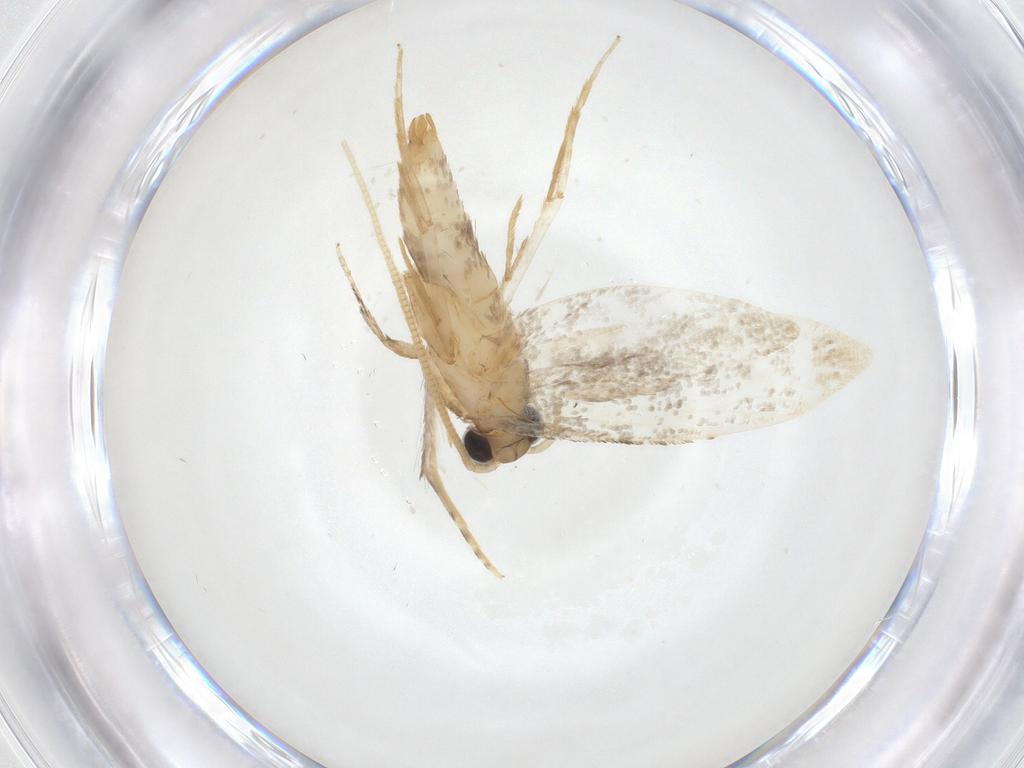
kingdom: Animalia
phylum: Arthropoda
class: Insecta
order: Lepidoptera
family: Tineidae
